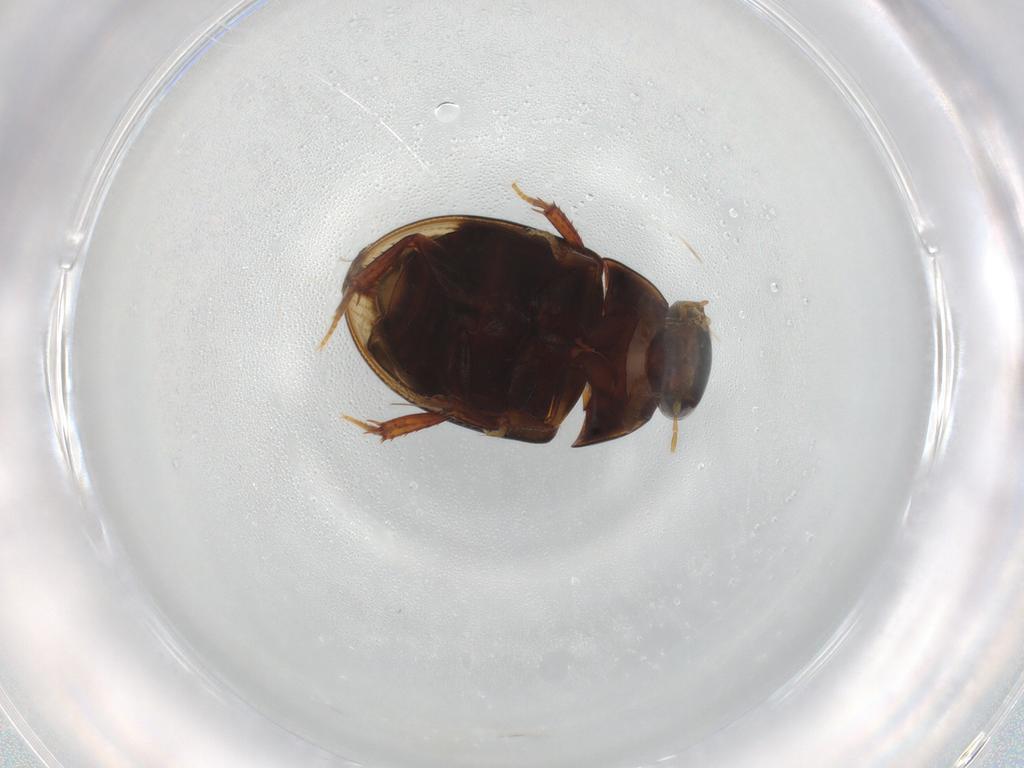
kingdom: Animalia
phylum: Arthropoda
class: Insecta
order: Coleoptera
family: Hydrophilidae
